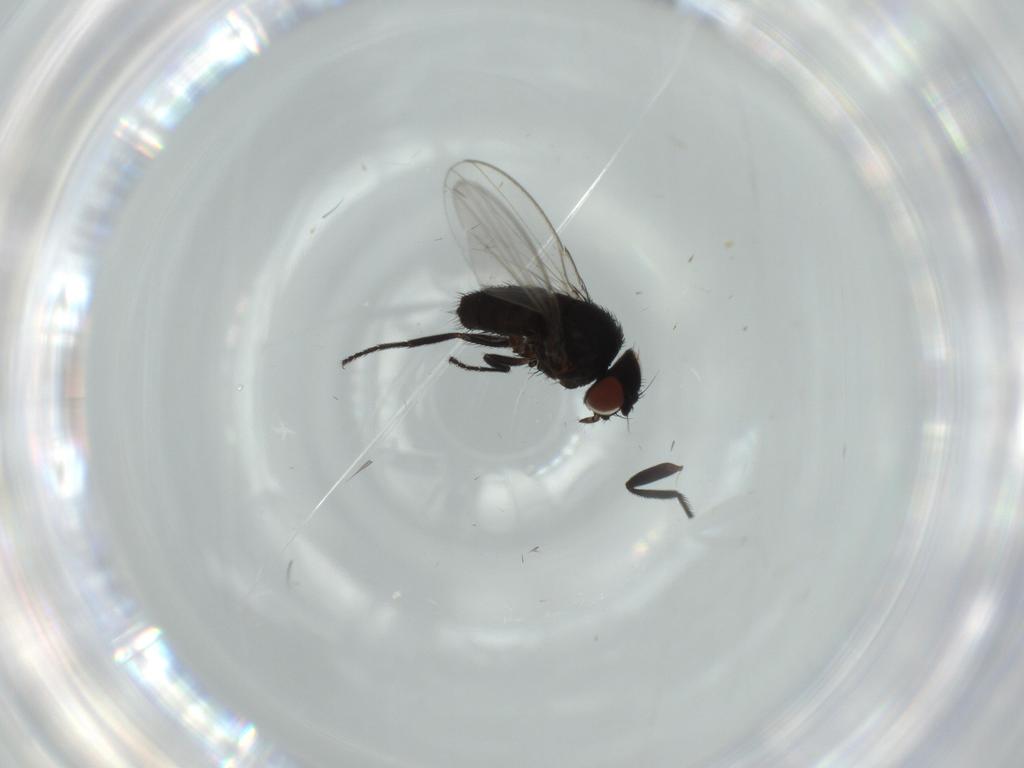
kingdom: Animalia
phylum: Arthropoda
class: Insecta
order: Diptera
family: Milichiidae
